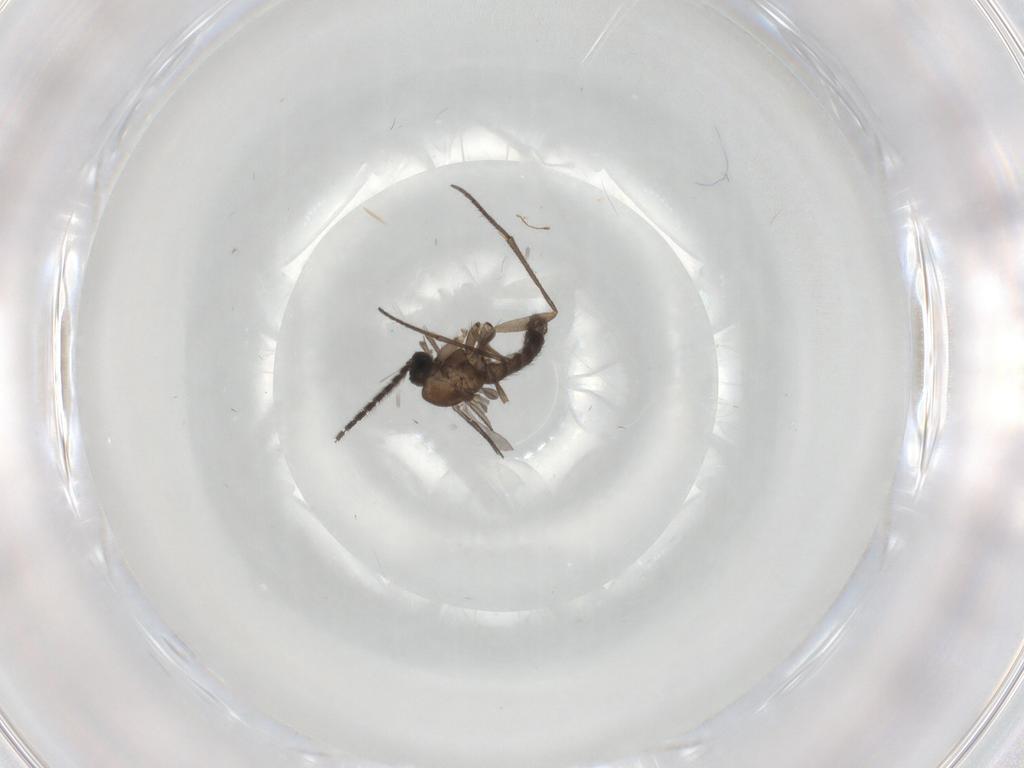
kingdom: Animalia
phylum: Arthropoda
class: Insecta
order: Diptera
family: Sciaridae
